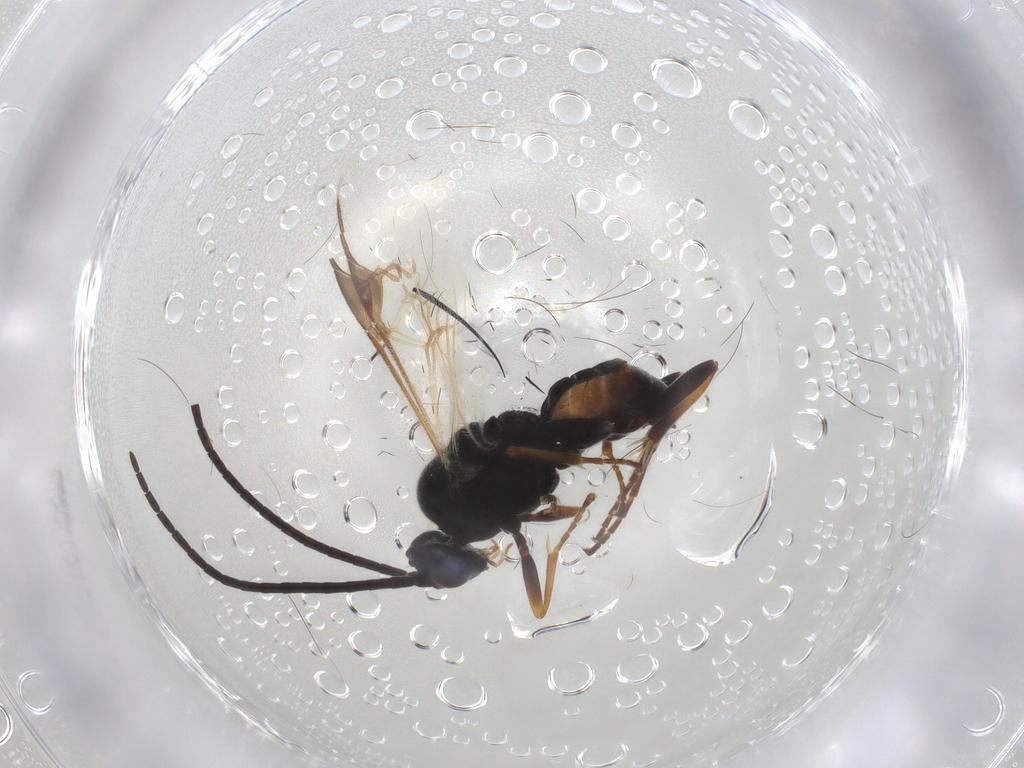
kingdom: Animalia
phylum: Arthropoda
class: Insecta
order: Hymenoptera
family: Braconidae
